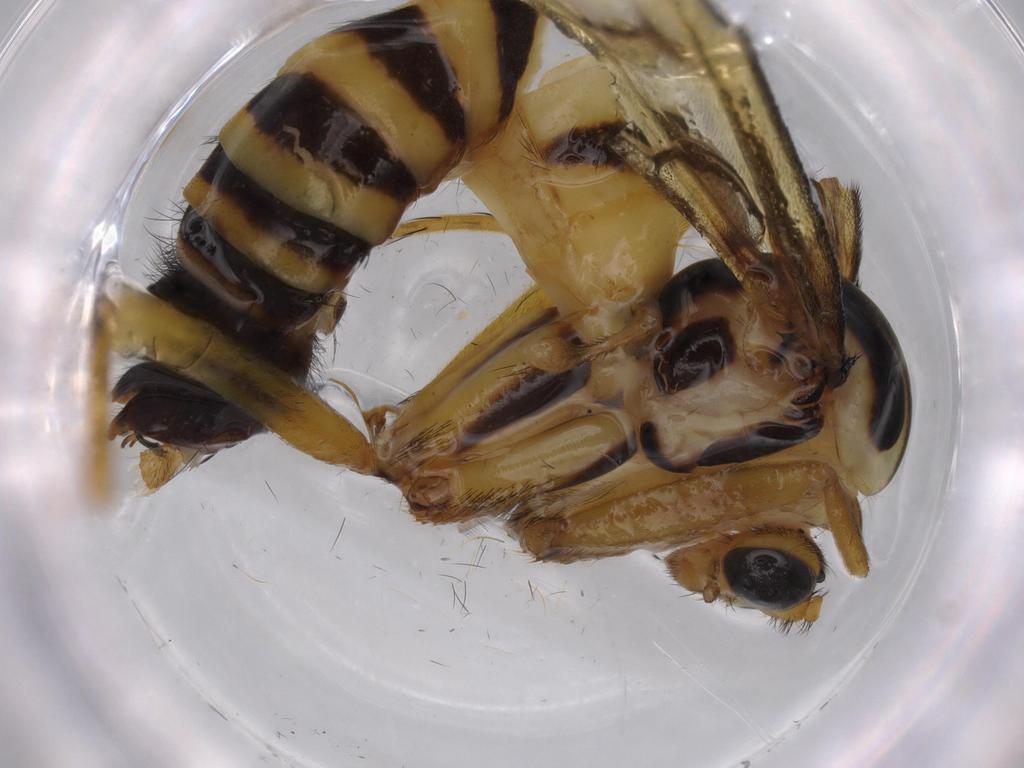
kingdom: Animalia
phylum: Arthropoda
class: Insecta
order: Diptera
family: Ditomyiidae
